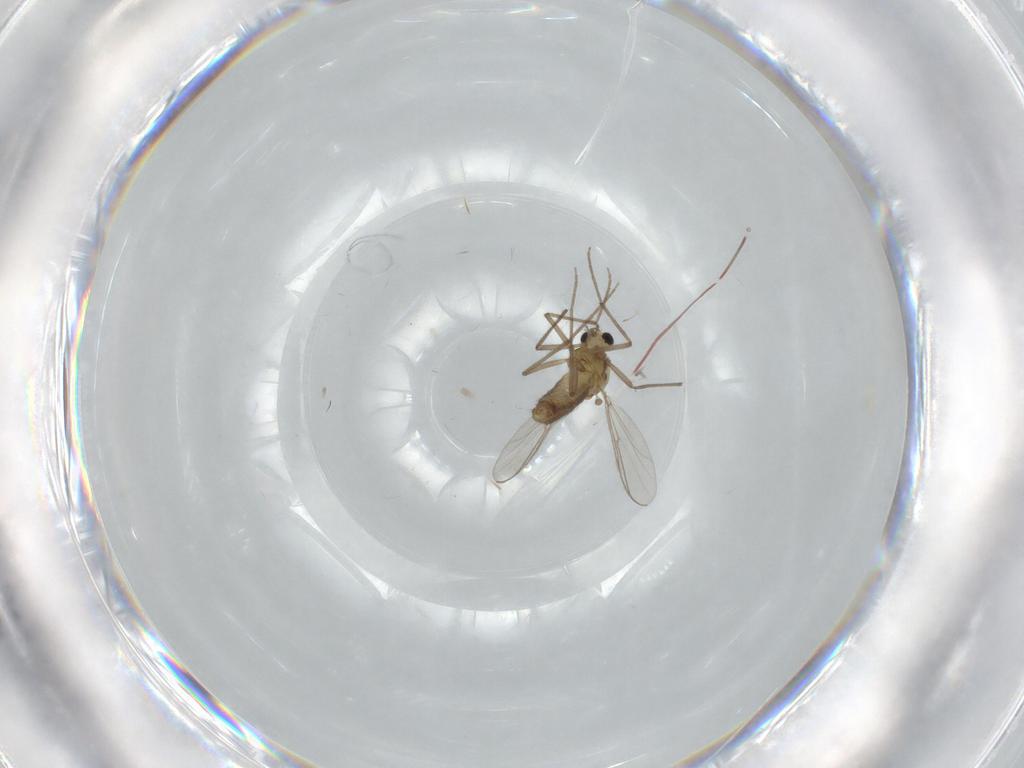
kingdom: Animalia
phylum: Arthropoda
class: Insecta
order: Diptera
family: Chironomidae
